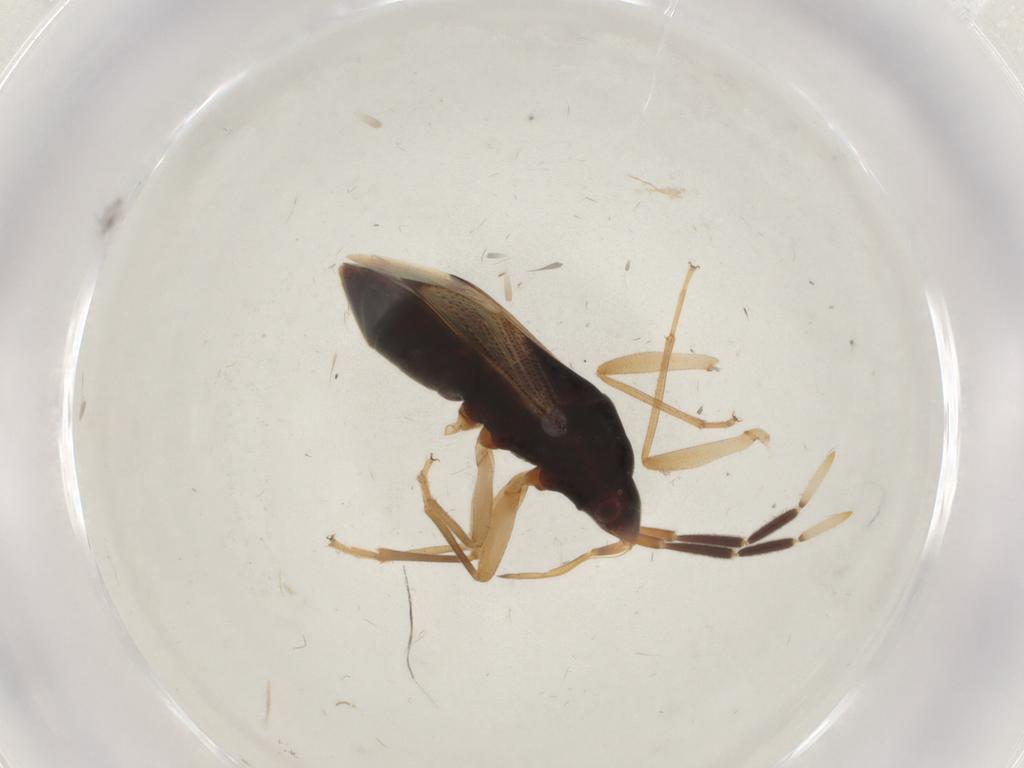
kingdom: Animalia
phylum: Arthropoda
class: Insecta
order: Hemiptera
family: Rhyparochromidae
